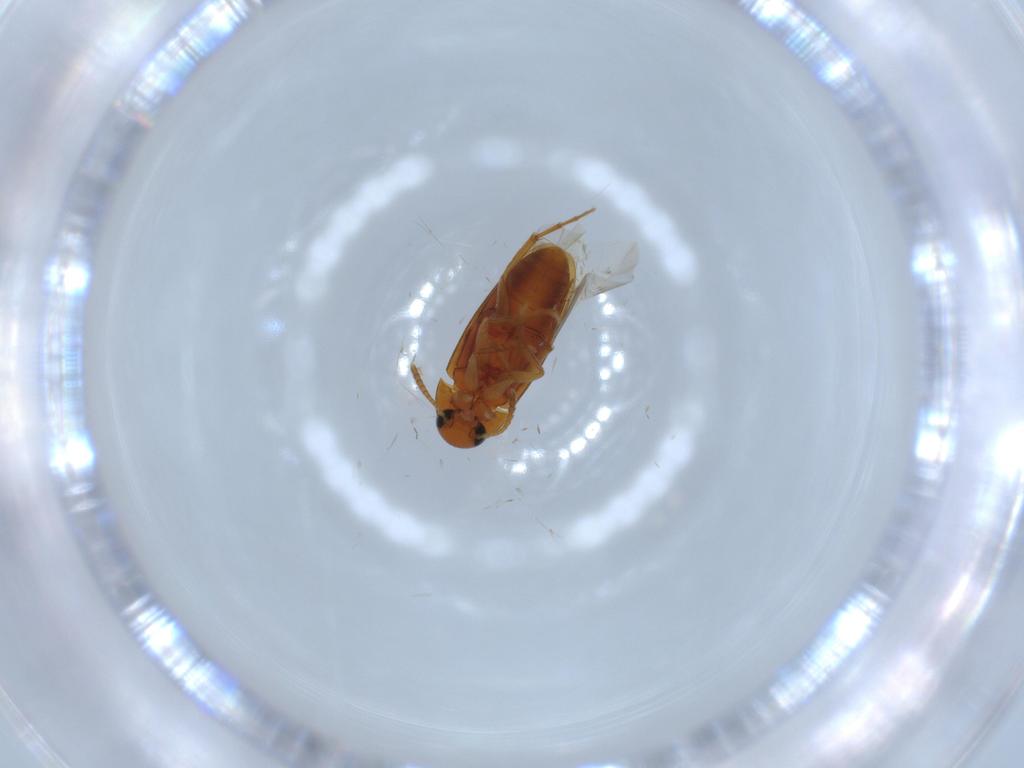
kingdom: Animalia
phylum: Arthropoda
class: Insecta
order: Coleoptera
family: Scraptiidae
